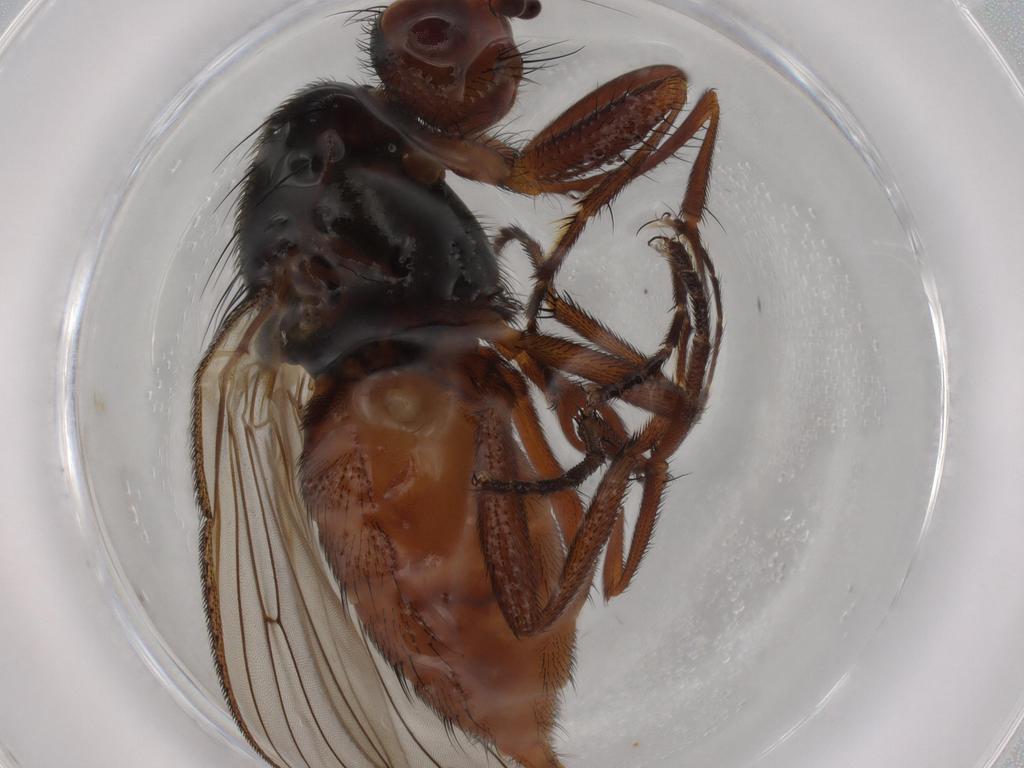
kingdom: Animalia
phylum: Arthropoda
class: Insecta
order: Diptera
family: Heleomyzidae
